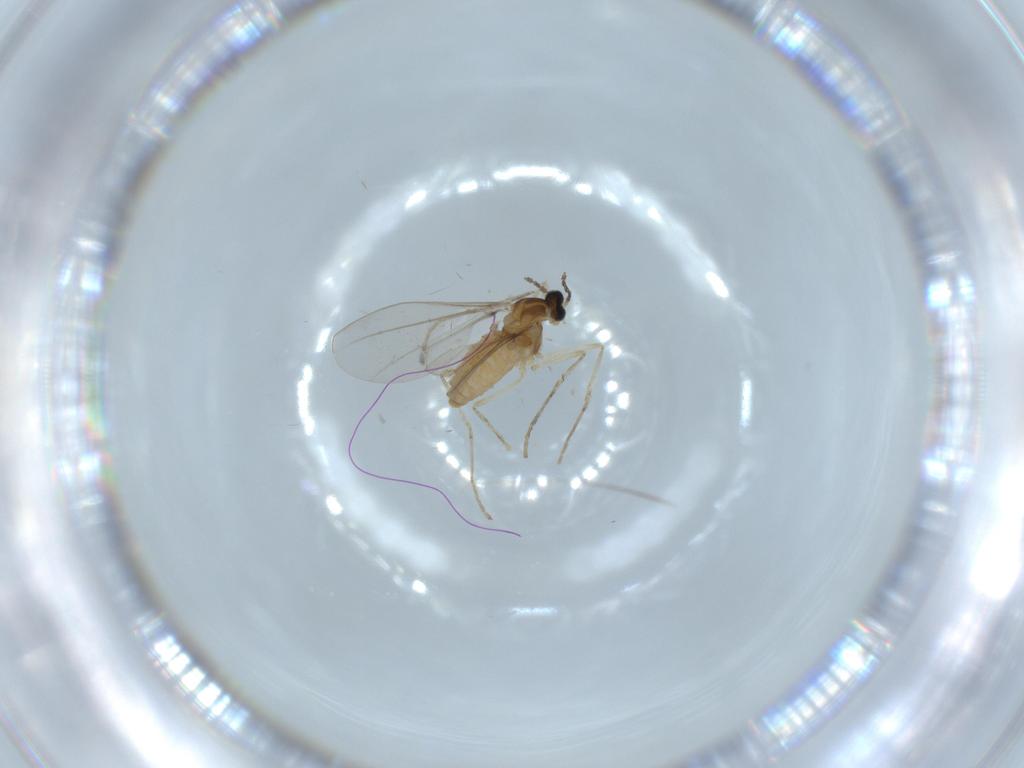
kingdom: Animalia
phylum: Arthropoda
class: Insecta
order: Diptera
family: Cecidomyiidae
